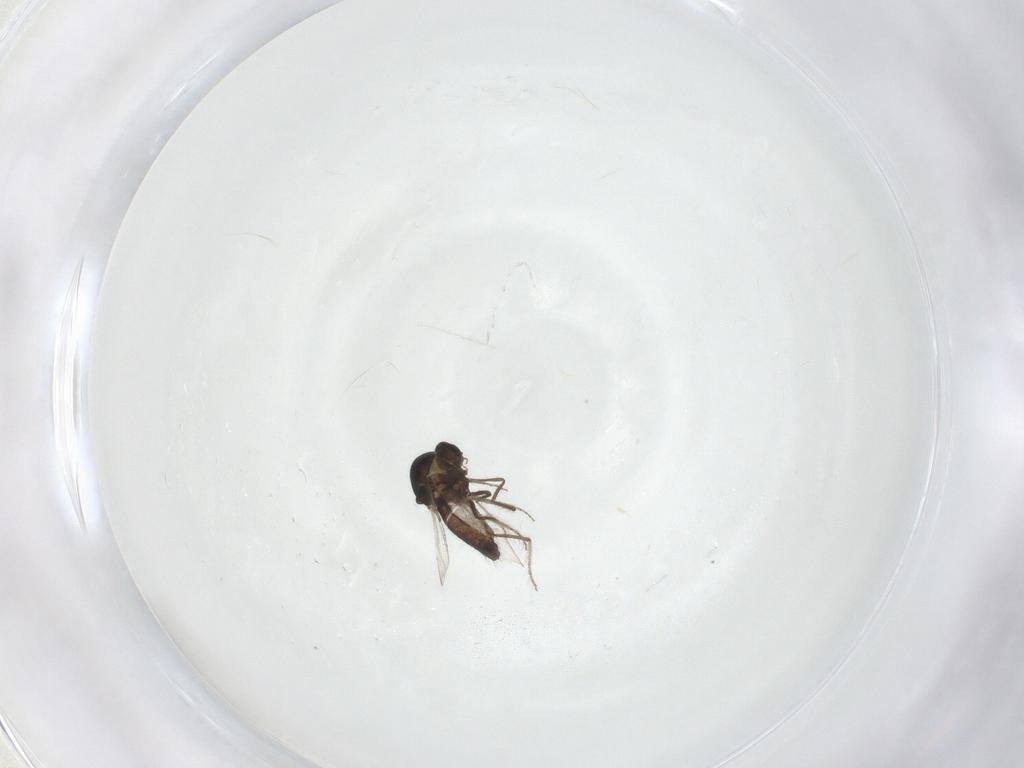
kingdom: Animalia
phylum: Arthropoda
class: Insecta
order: Diptera
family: Ceratopogonidae
